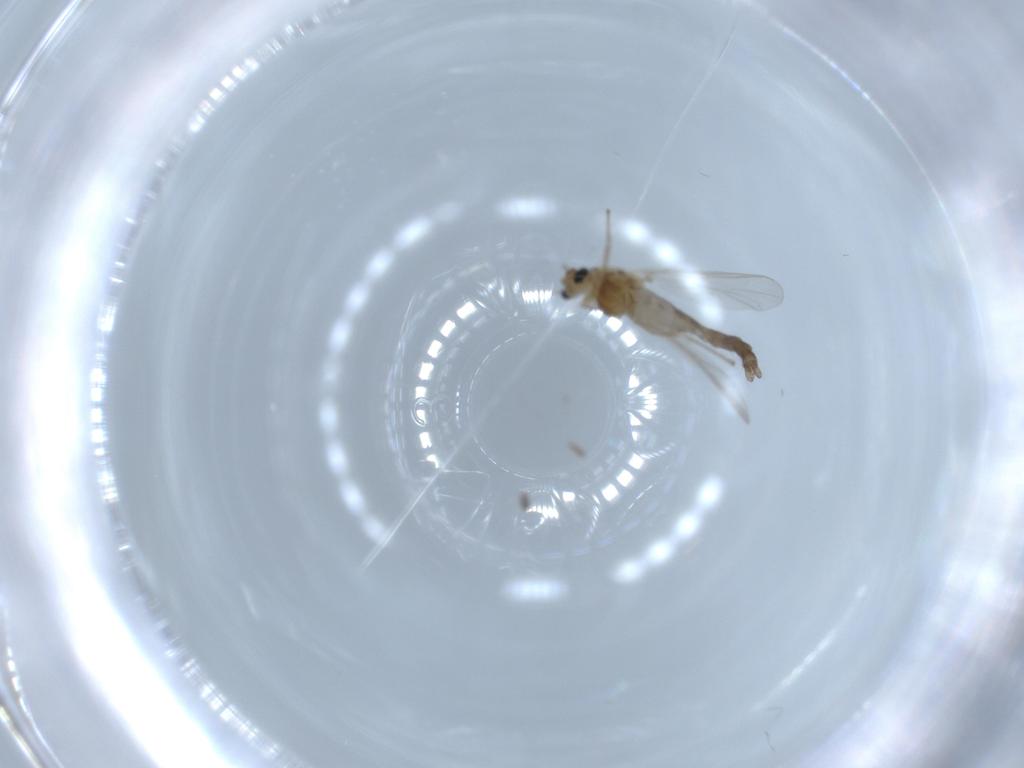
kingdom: Animalia
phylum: Arthropoda
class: Insecta
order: Diptera
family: Chironomidae
